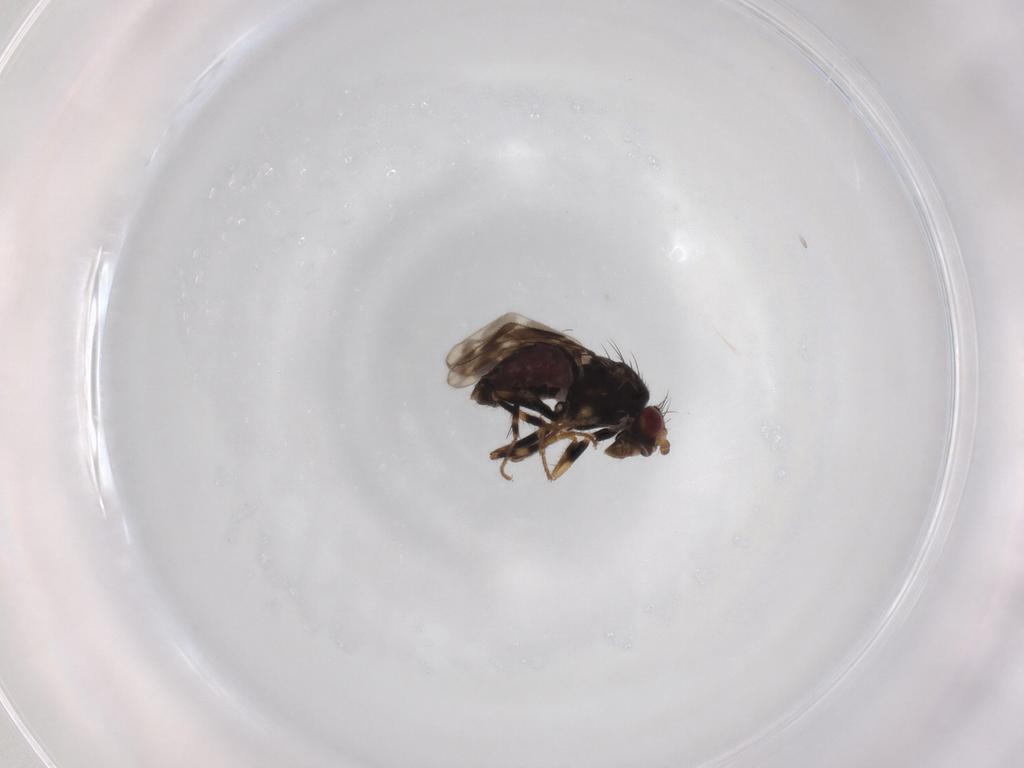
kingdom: Animalia
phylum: Arthropoda
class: Insecta
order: Diptera
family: Sphaeroceridae
